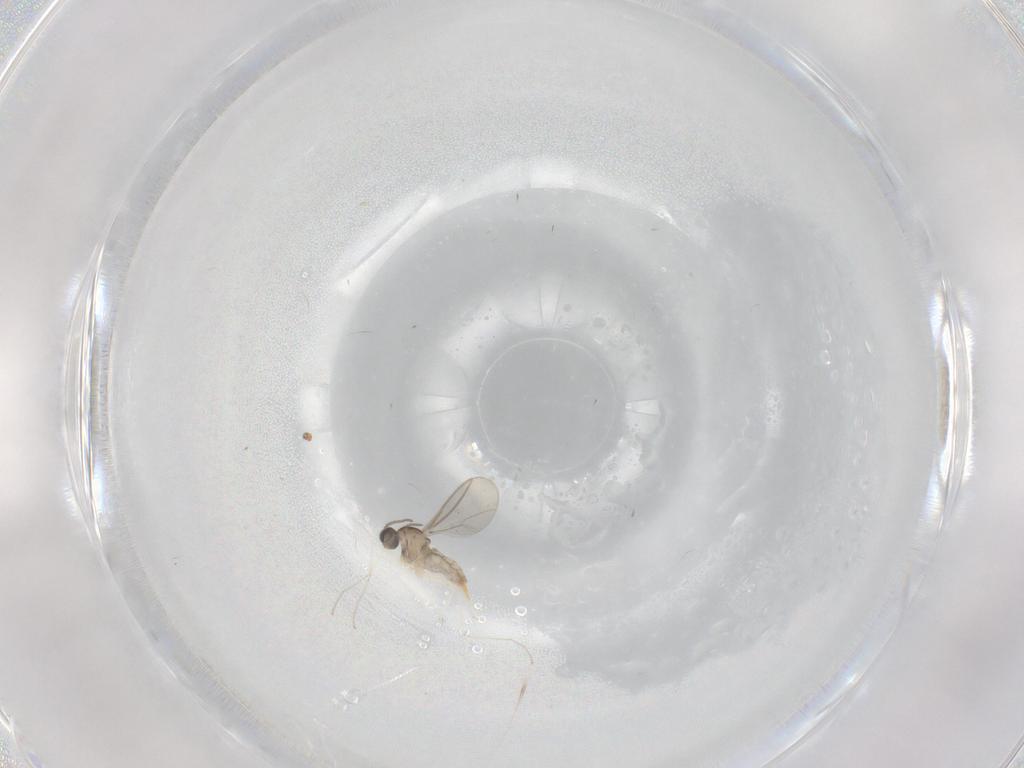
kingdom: Animalia
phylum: Arthropoda
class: Insecta
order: Diptera
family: Cecidomyiidae
